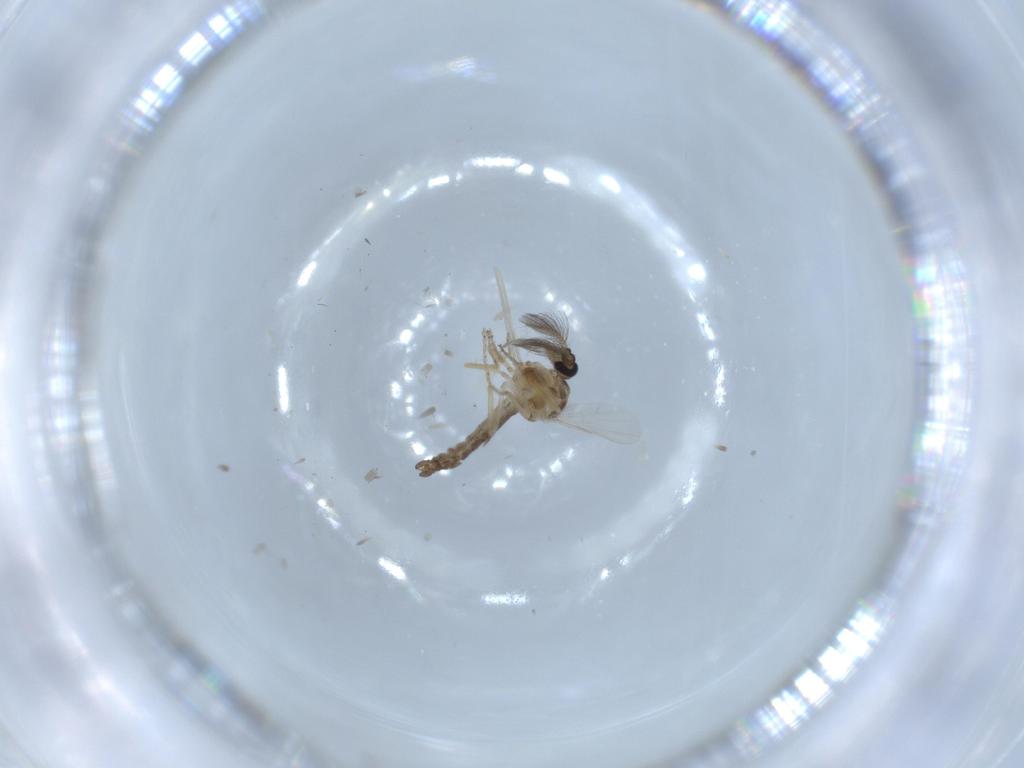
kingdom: Animalia
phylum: Arthropoda
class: Insecta
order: Diptera
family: Ceratopogonidae
